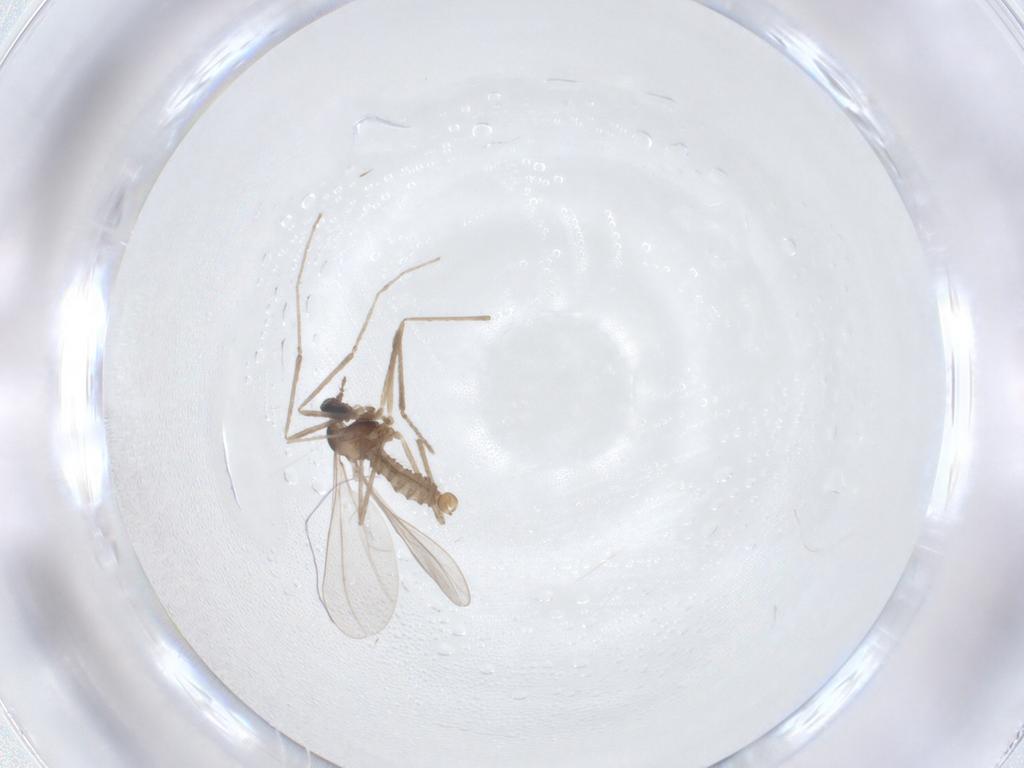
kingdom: Animalia
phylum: Arthropoda
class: Insecta
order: Diptera
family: Cecidomyiidae
